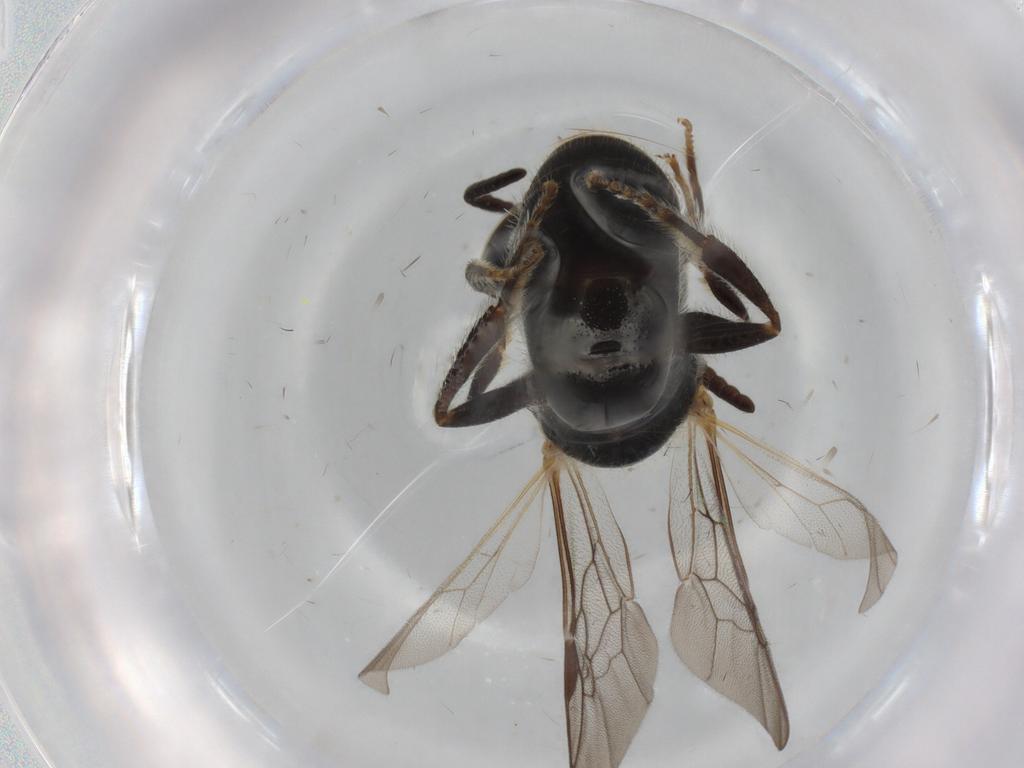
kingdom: Animalia
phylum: Arthropoda
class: Insecta
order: Hymenoptera
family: Halictidae
